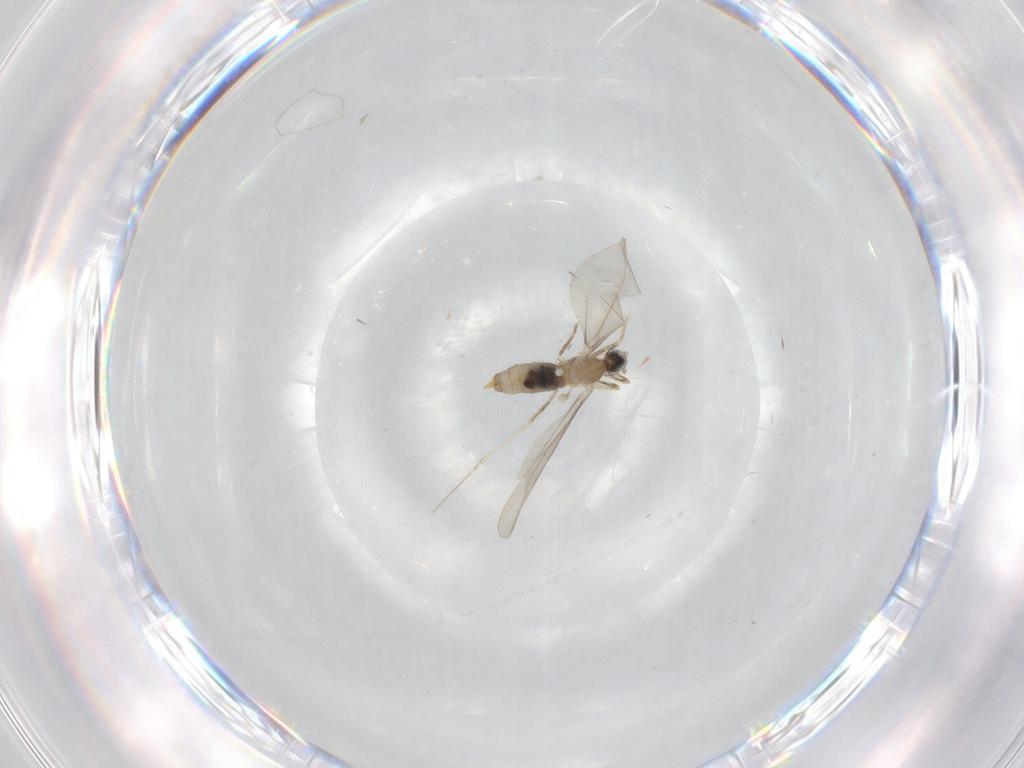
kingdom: Animalia
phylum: Arthropoda
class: Insecta
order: Diptera
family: Cecidomyiidae
